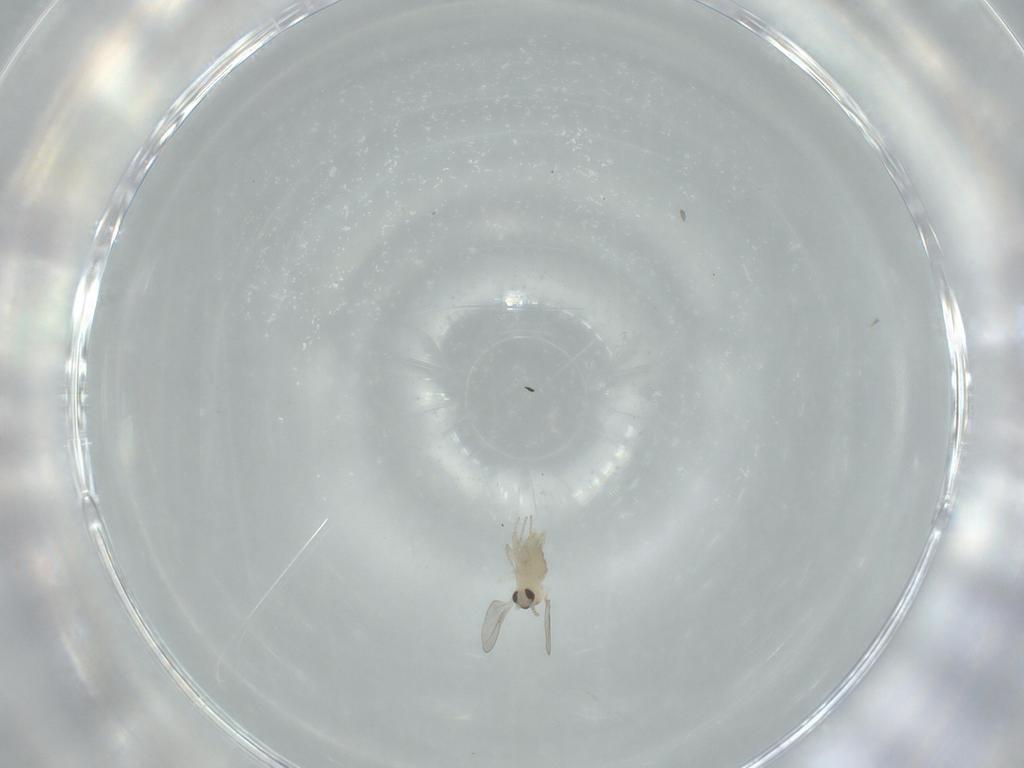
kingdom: Animalia
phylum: Arthropoda
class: Insecta
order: Diptera
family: Cecidomyiidae
